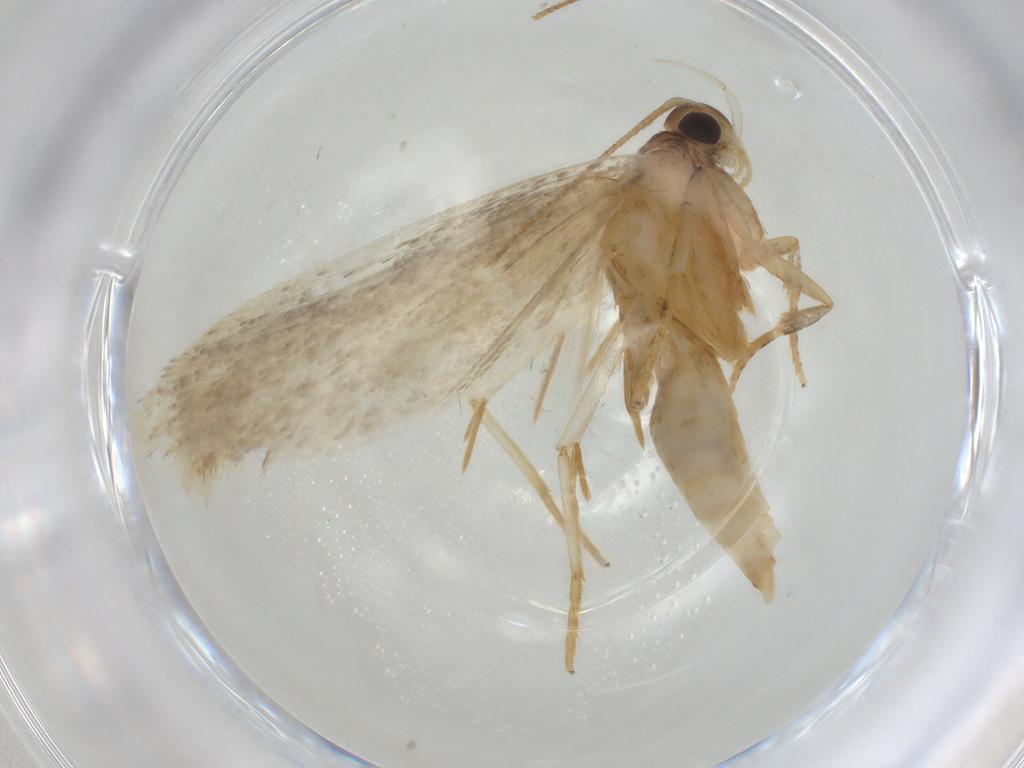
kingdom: Animalia
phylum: Arthropoda
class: Insecta
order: Lepidoptera
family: Gelechiidae
